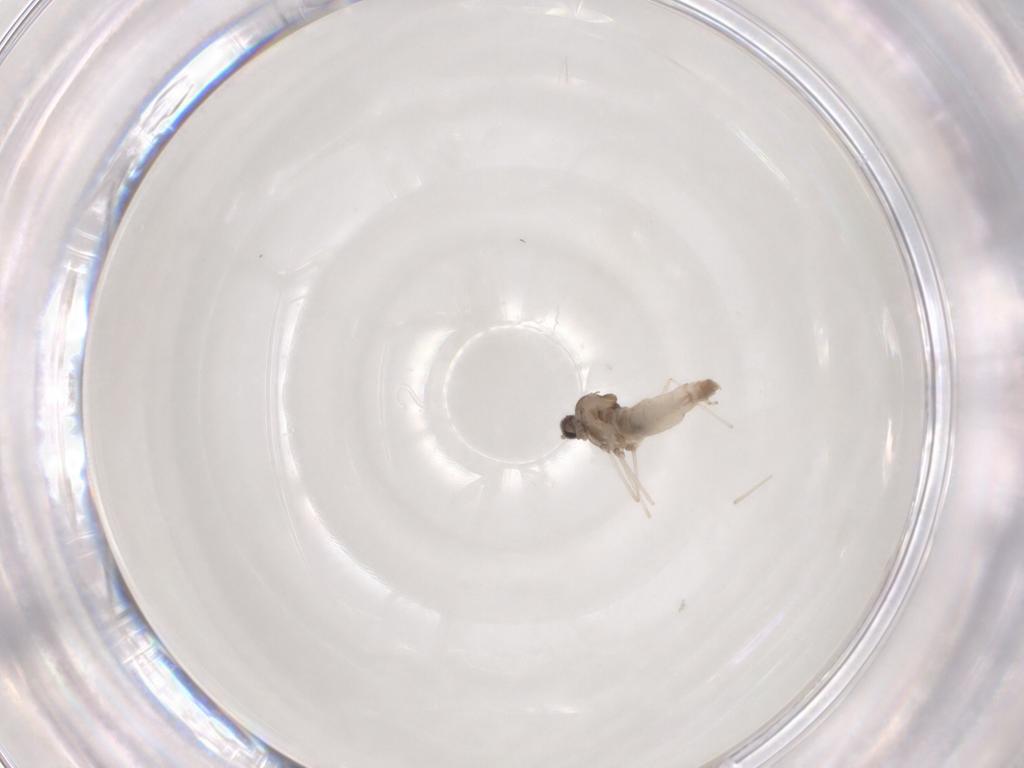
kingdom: Animalia
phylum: Arthropoda
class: Insecta
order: Diptera
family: Cecidomyiidae
